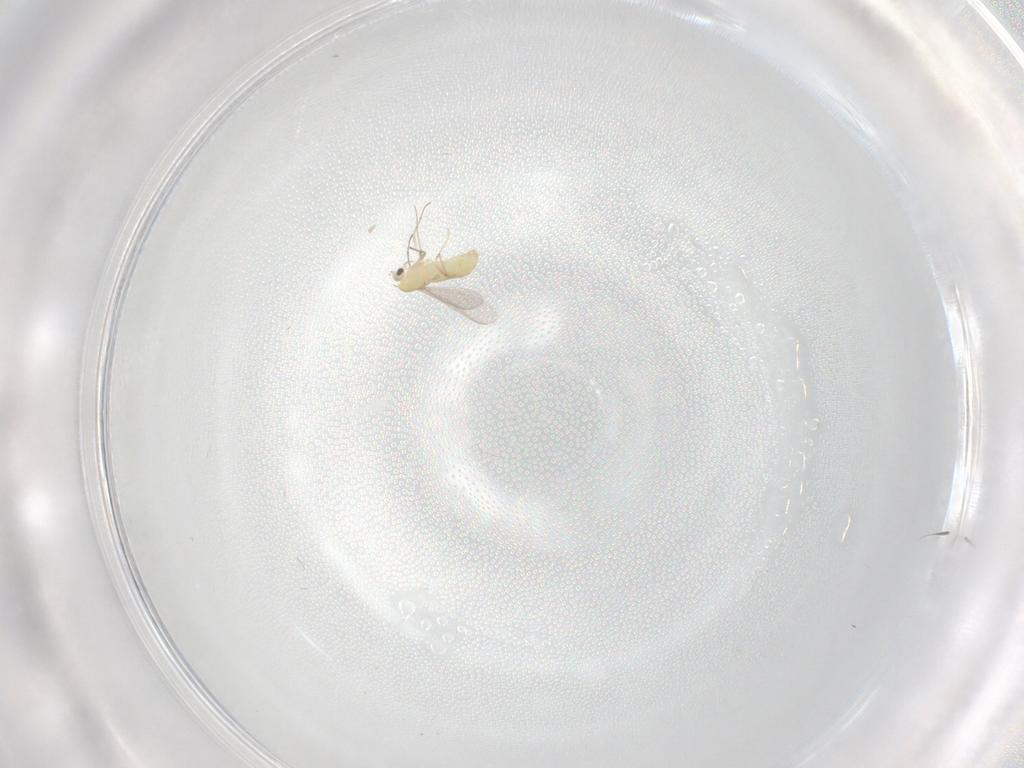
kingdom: Animalia
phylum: Arthropoda
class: Insecta
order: Diptera
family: Chironomidae
